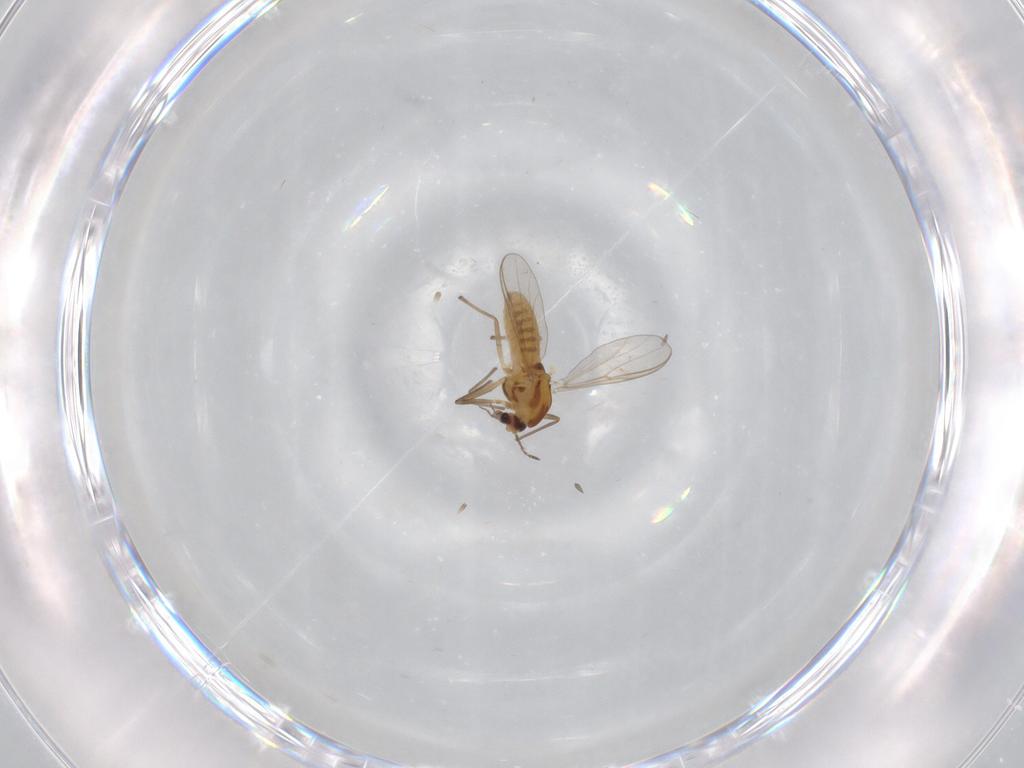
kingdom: Animalia
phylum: Arthropoda
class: Insecta
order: Diptera
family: Chironomidae
